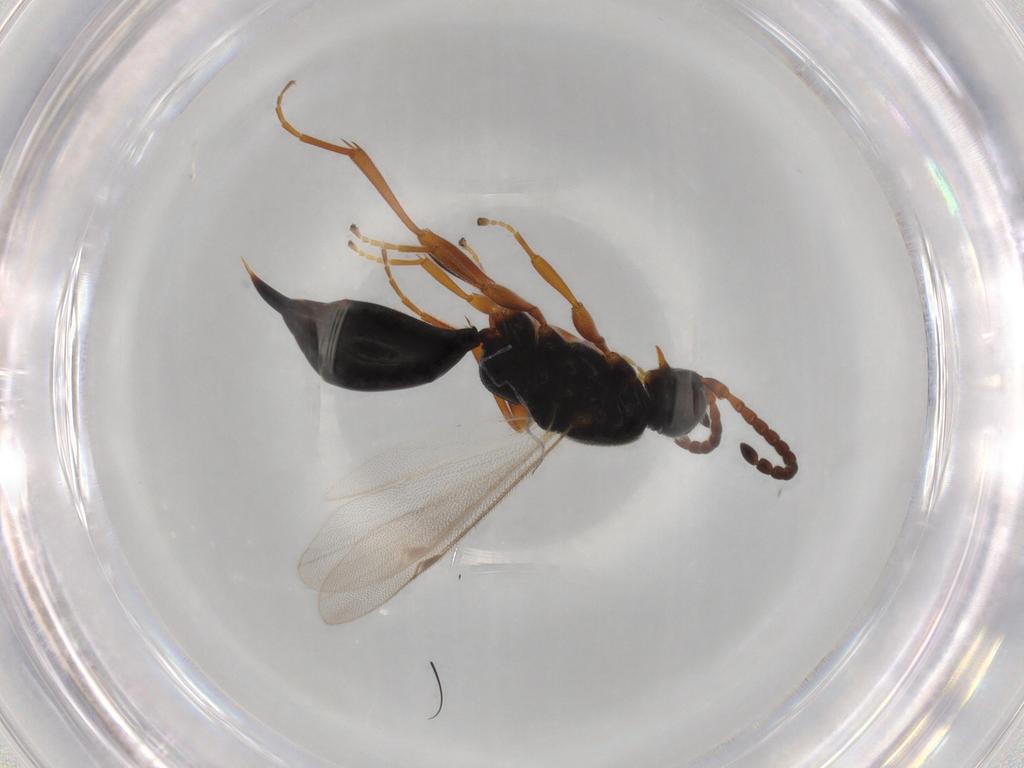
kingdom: Animalia
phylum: Arthropoda
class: Insecta
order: Diptera
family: Cecidomyiidae
